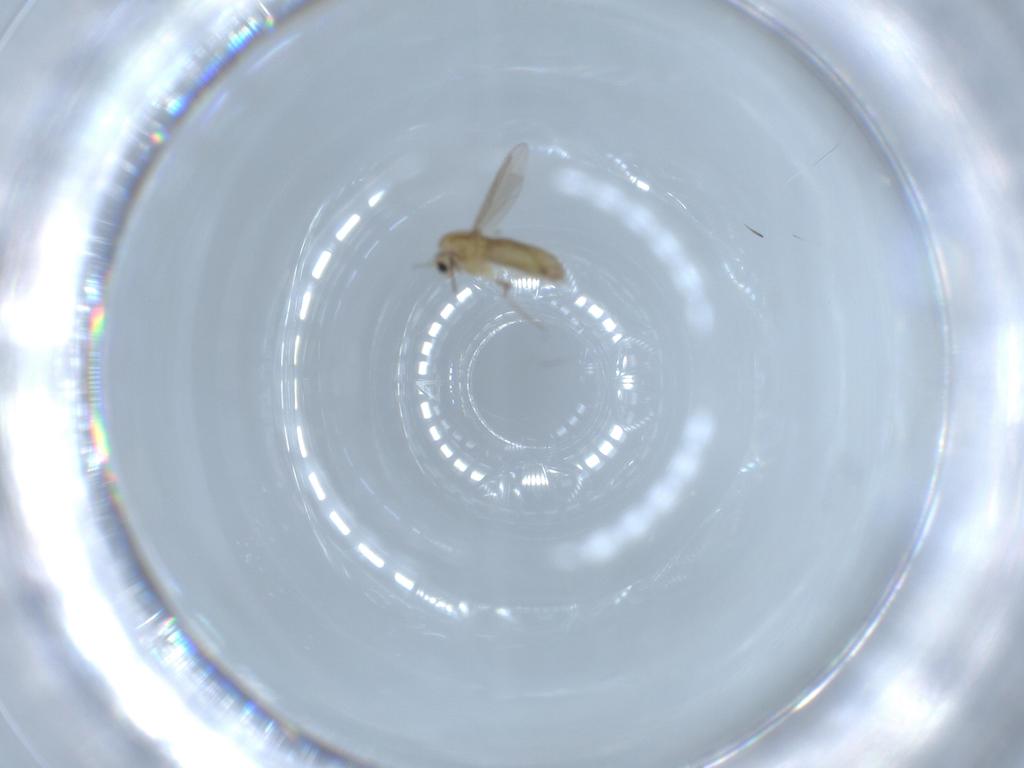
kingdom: Animalia
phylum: Arthropoda
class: Insecta
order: Diptera
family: Chironomidae
